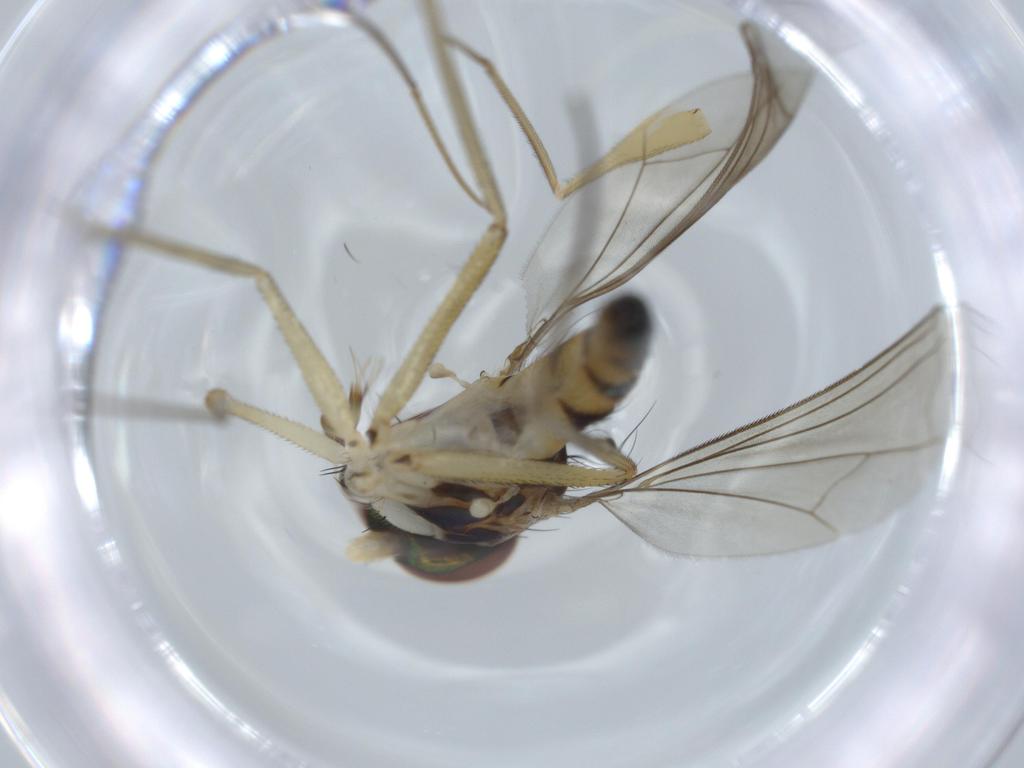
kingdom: Animalia
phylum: Arthropoda
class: Insecta
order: Diptera
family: Dolichopodidae
